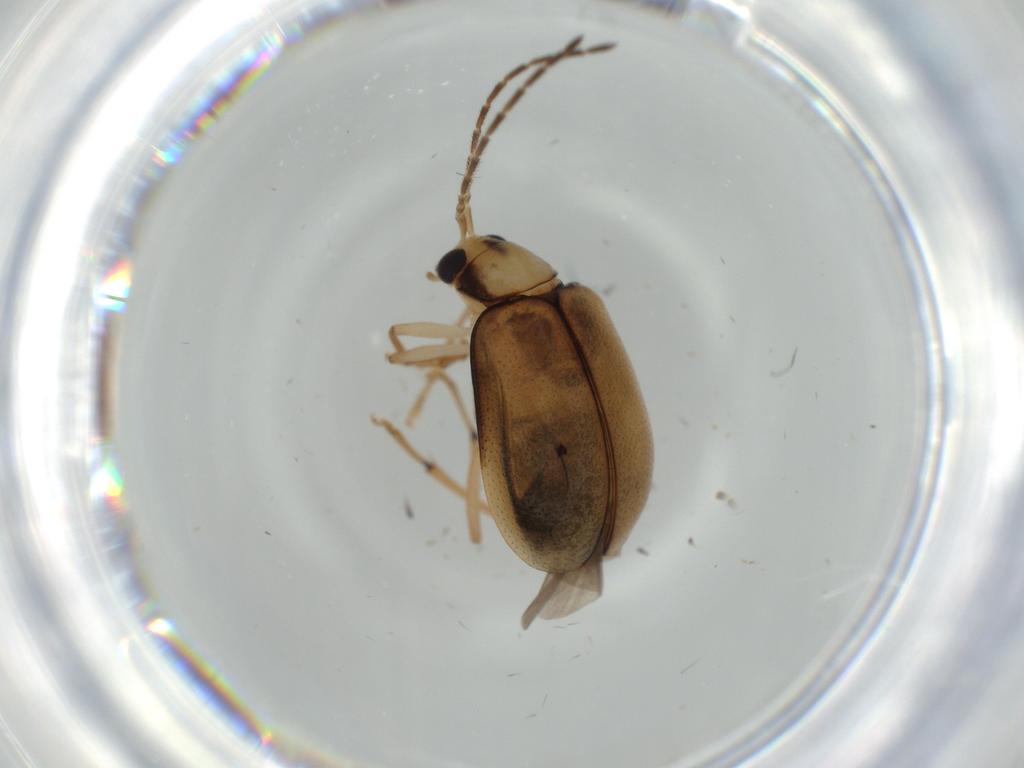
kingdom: Animalia
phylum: Arthropoda
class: Insecta
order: Coleoptera
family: Chrysomelidae
